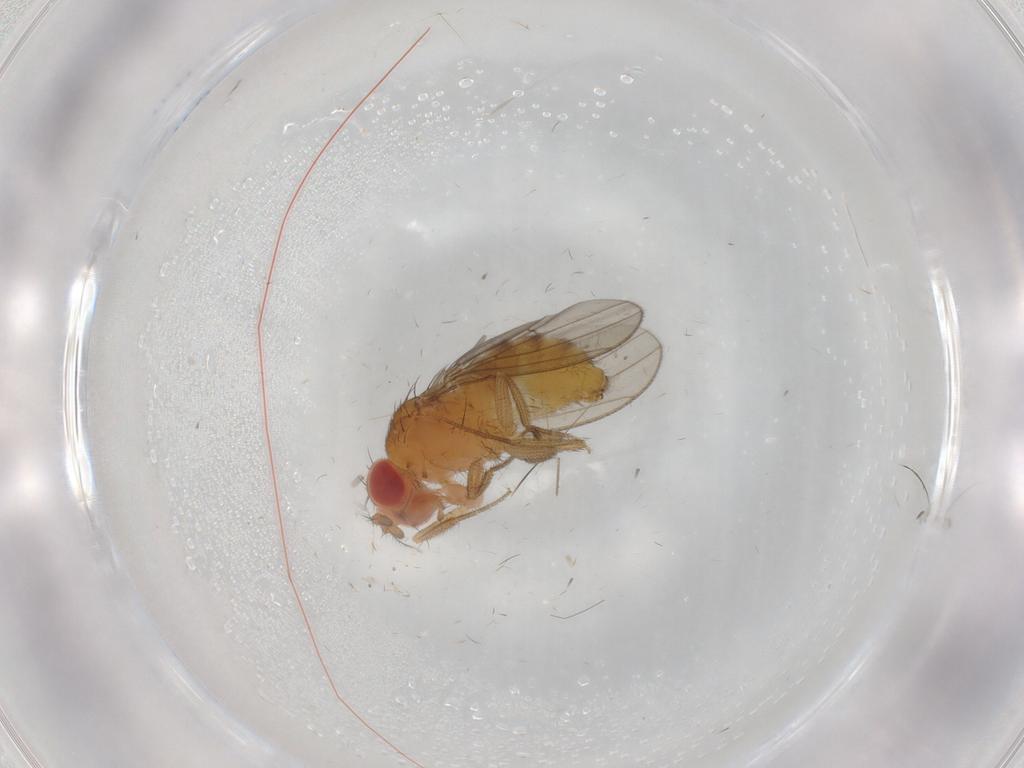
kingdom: Animalia
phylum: Arthropoda
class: Insecta
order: Diptera
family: Drosophilidae
